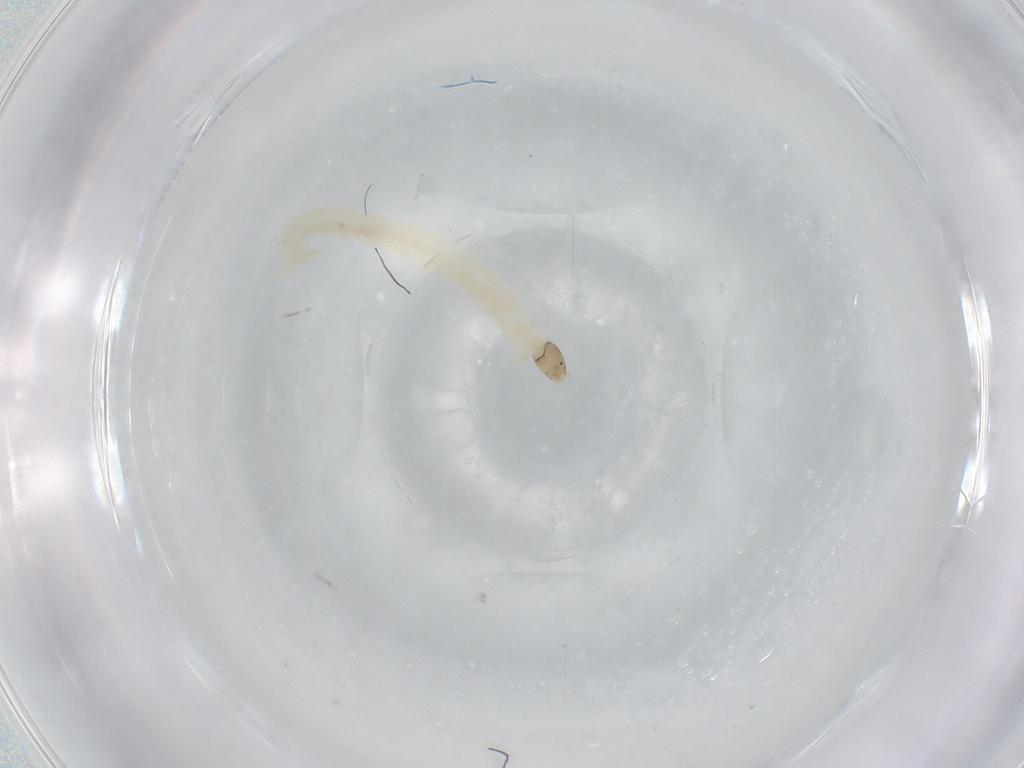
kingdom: Animalia
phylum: Arthropoda
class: Insecta
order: Diptera
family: Chironomidae
